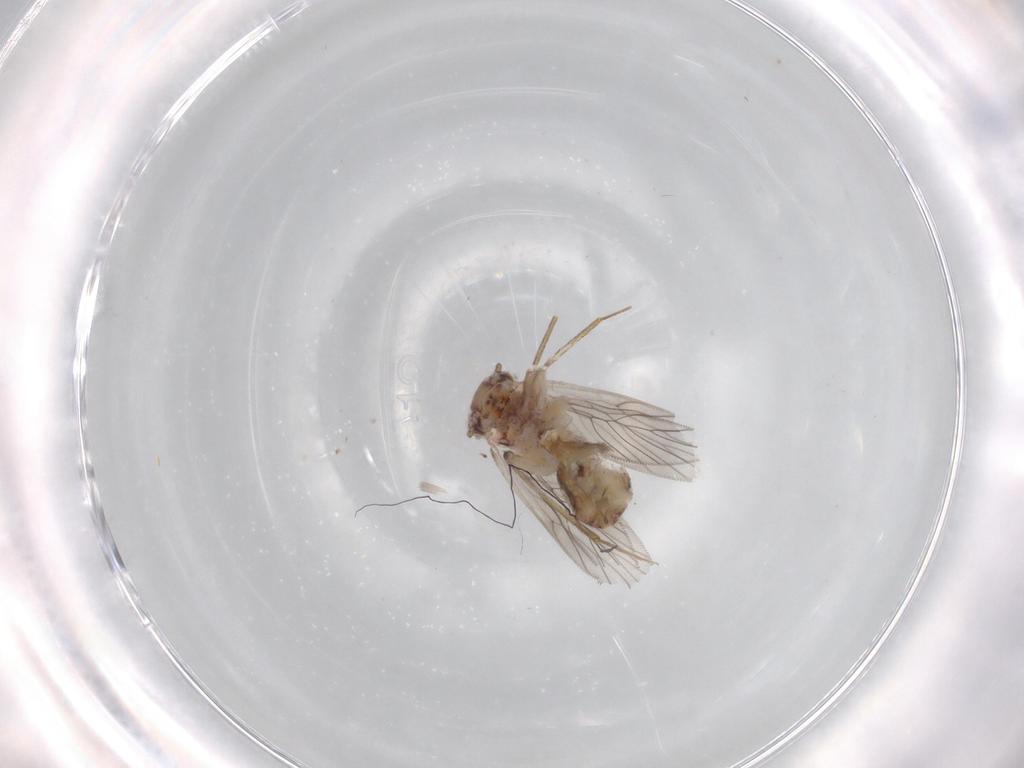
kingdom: Animalia
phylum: Arthropoda
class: Insecta
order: Psocodea
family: Lepidopsocidae
